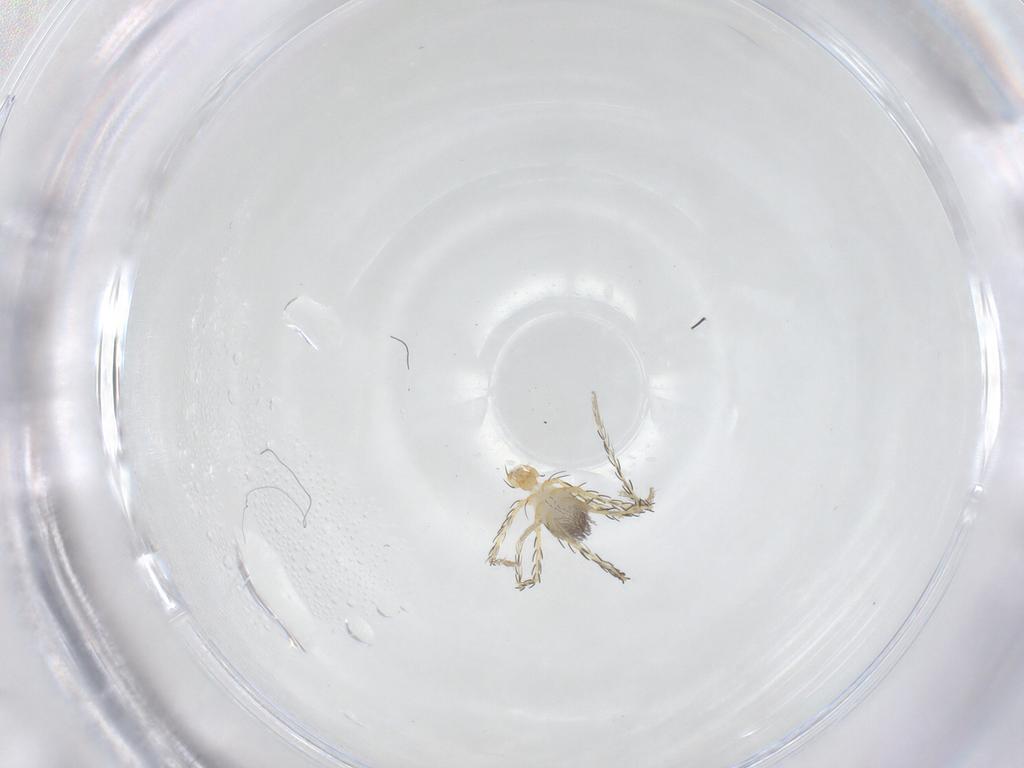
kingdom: Animalia
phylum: Arthropoda
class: Arachnida
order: Trombidiformes
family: Erythraeidae
